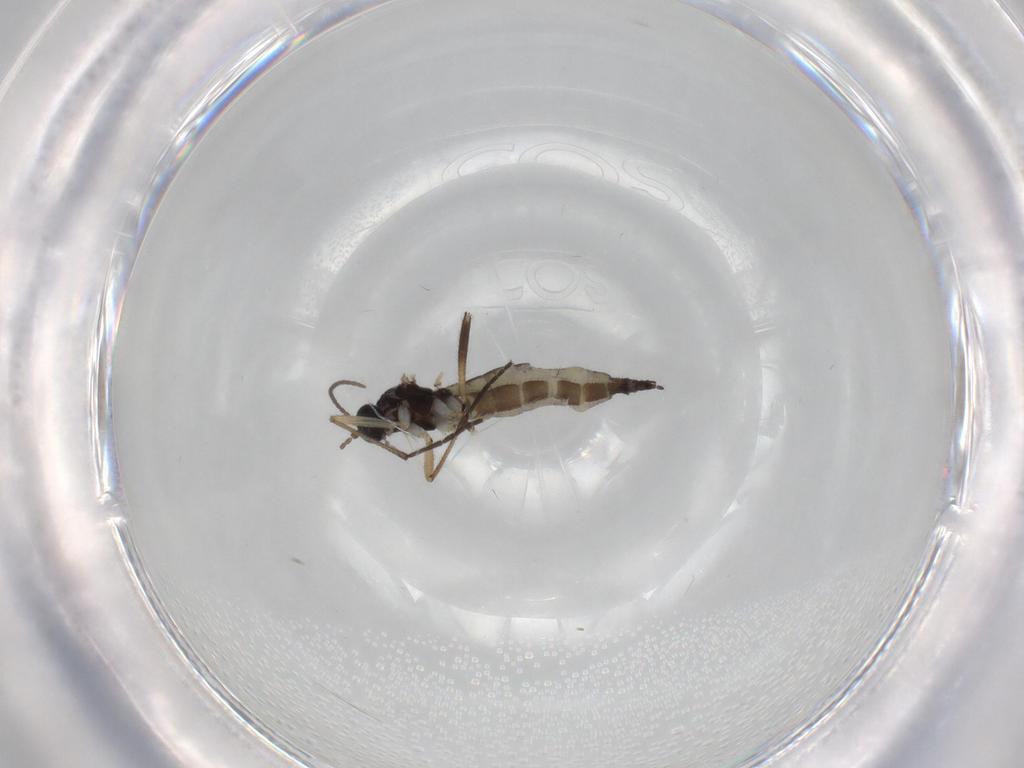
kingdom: Animalia
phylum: Arthropoda
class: Insecta
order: Diptera
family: Sciaridae
